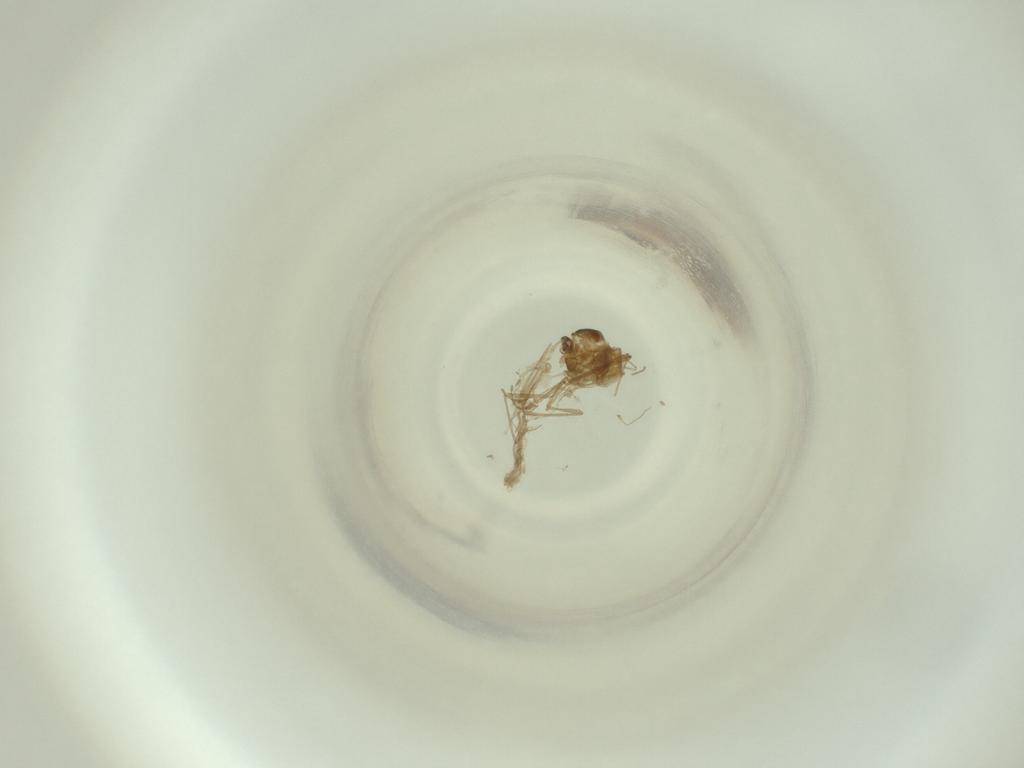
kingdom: Animalia
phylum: Arthropoda
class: Insecta
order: Diptera
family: Cecidomyiidae
